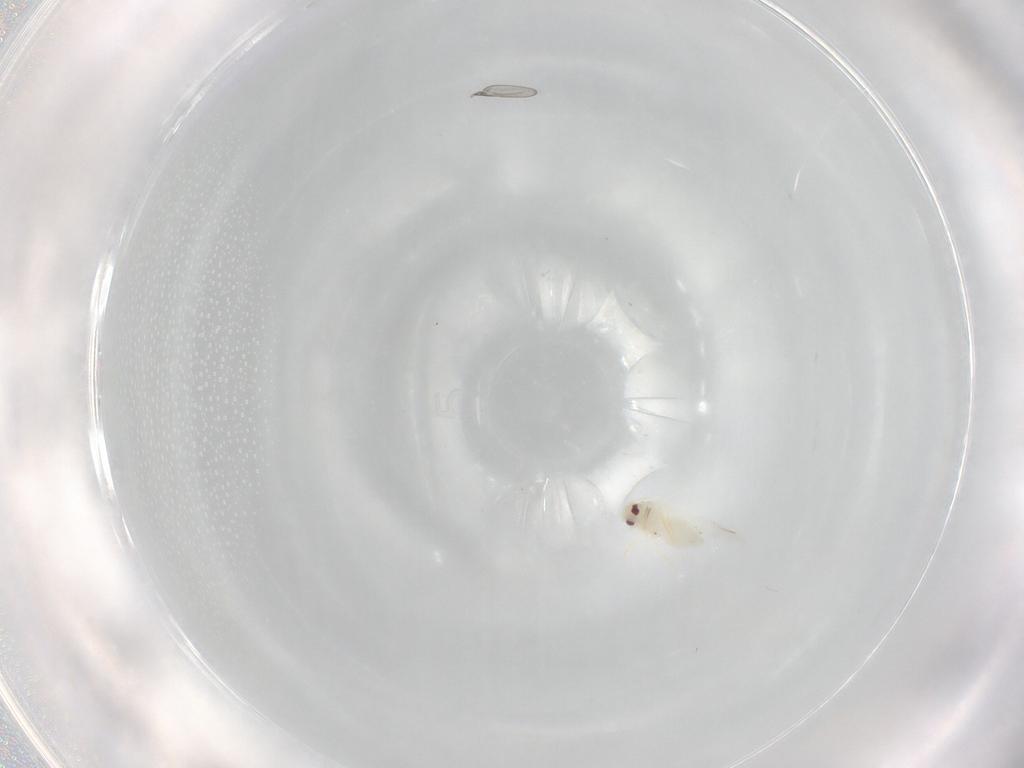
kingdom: Animalia
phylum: Arthropoda
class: Insecta
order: Hemiptera
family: Aleyrodidae
